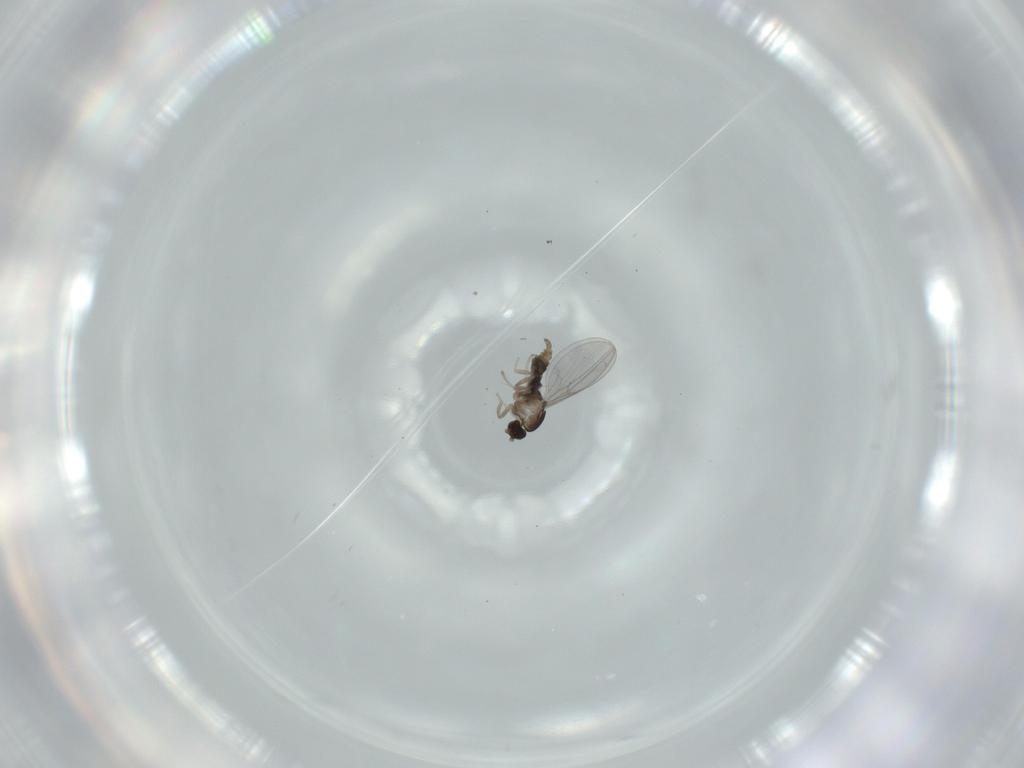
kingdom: Animalia
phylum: Arthropoda
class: Insecta
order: Diptera
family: Cecidomyiidae
